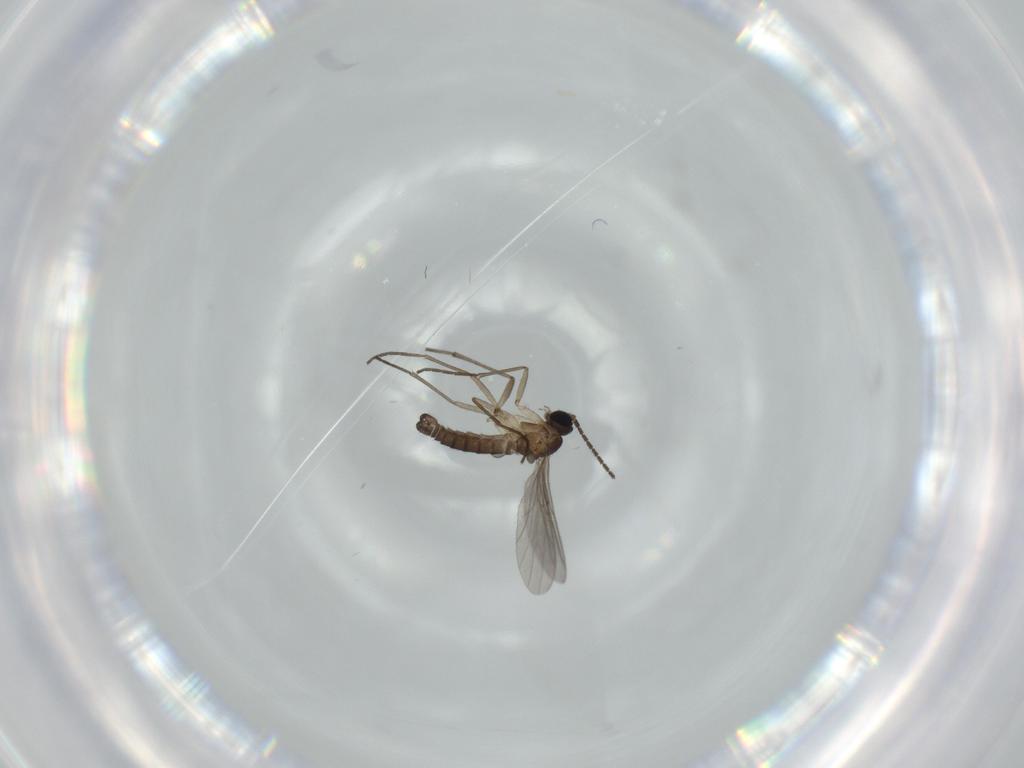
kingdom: Animalia
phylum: Arthropoda
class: Insecta
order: Diptera
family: Sciaridae
